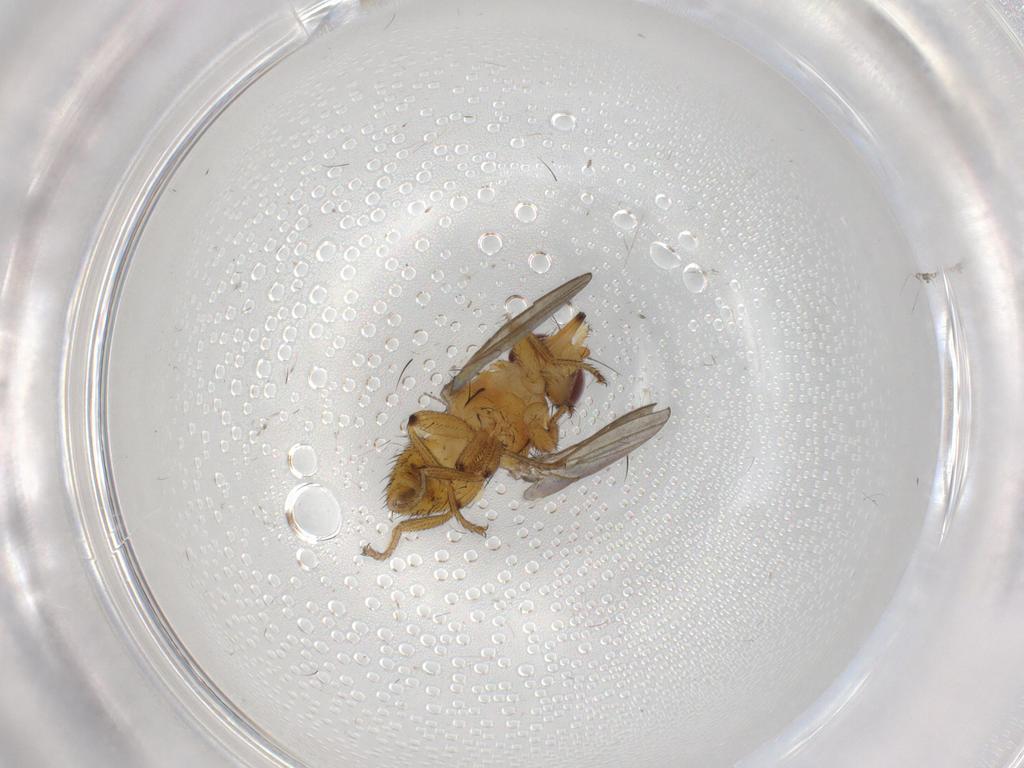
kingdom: Animalia
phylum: Arthropoda
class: Insecta
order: Diptera
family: Milichiidae
